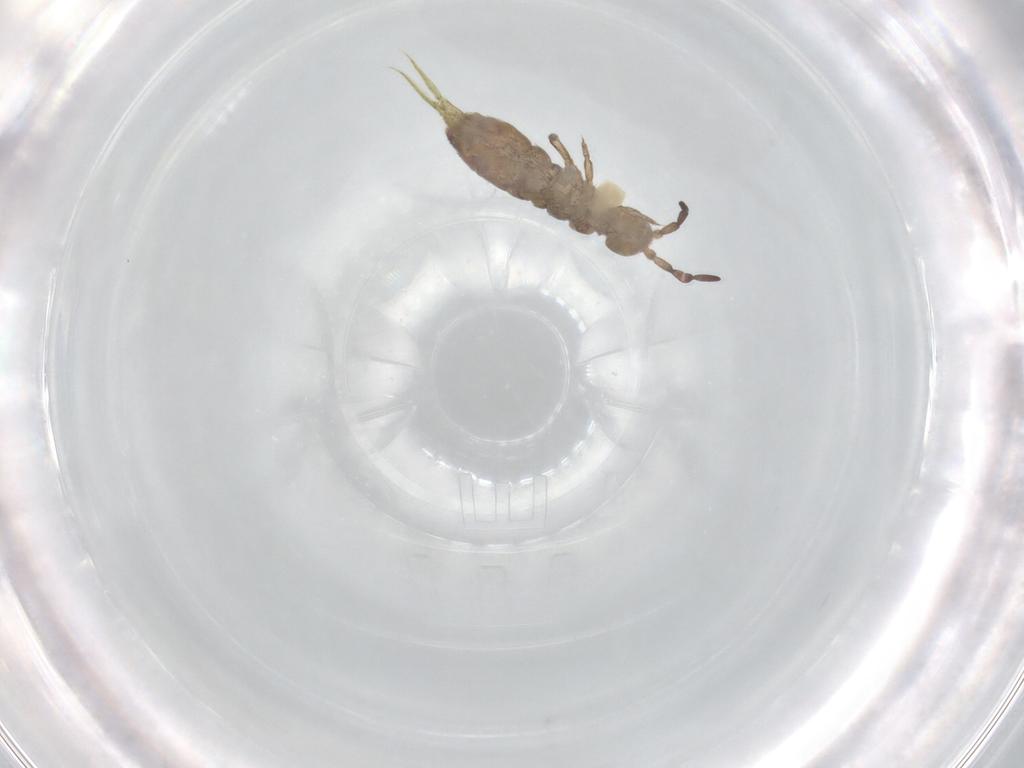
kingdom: Animalia
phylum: Arthropoda
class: Collembola
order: Entomobryomorpha
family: Isotomidae
